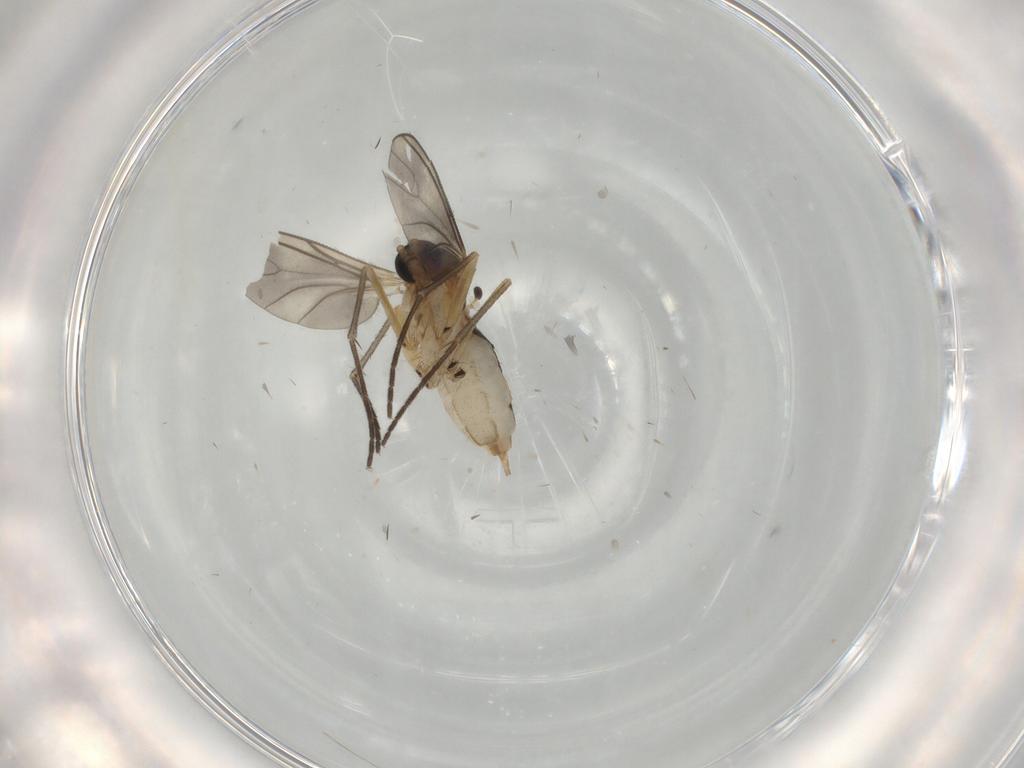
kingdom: Animalia
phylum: Arthropoda
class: Insecta
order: Diptera
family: Ceratopogonidae
